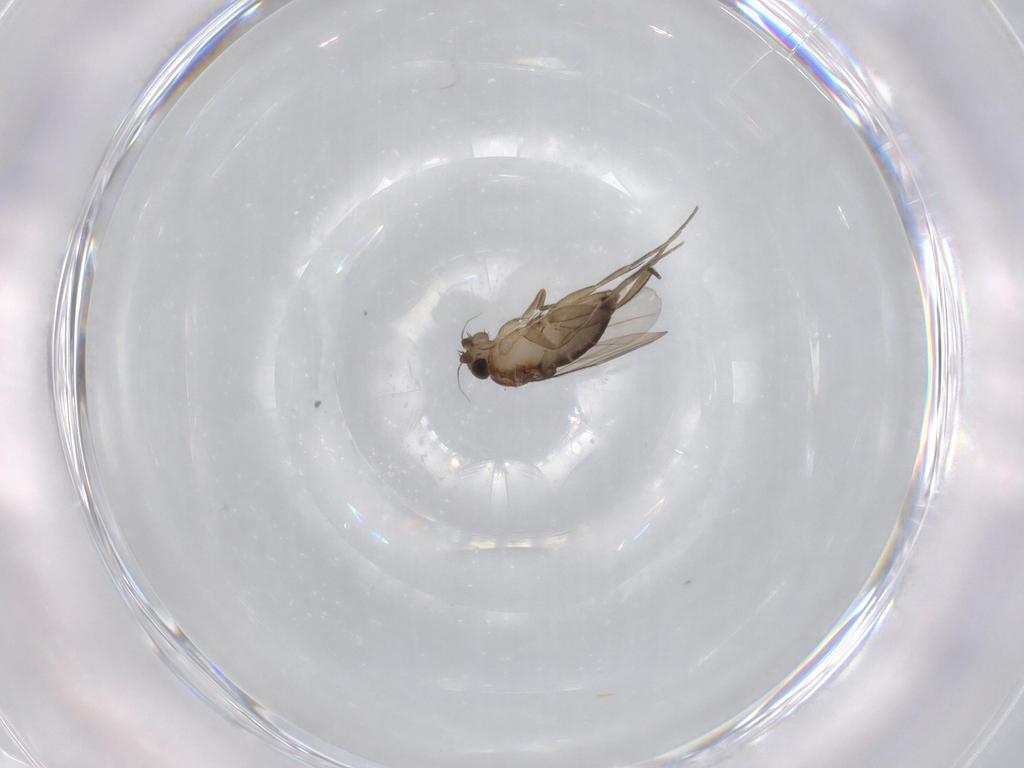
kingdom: Animalia
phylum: Arthropoda
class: Insecta
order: Diptera
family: Phoridae
